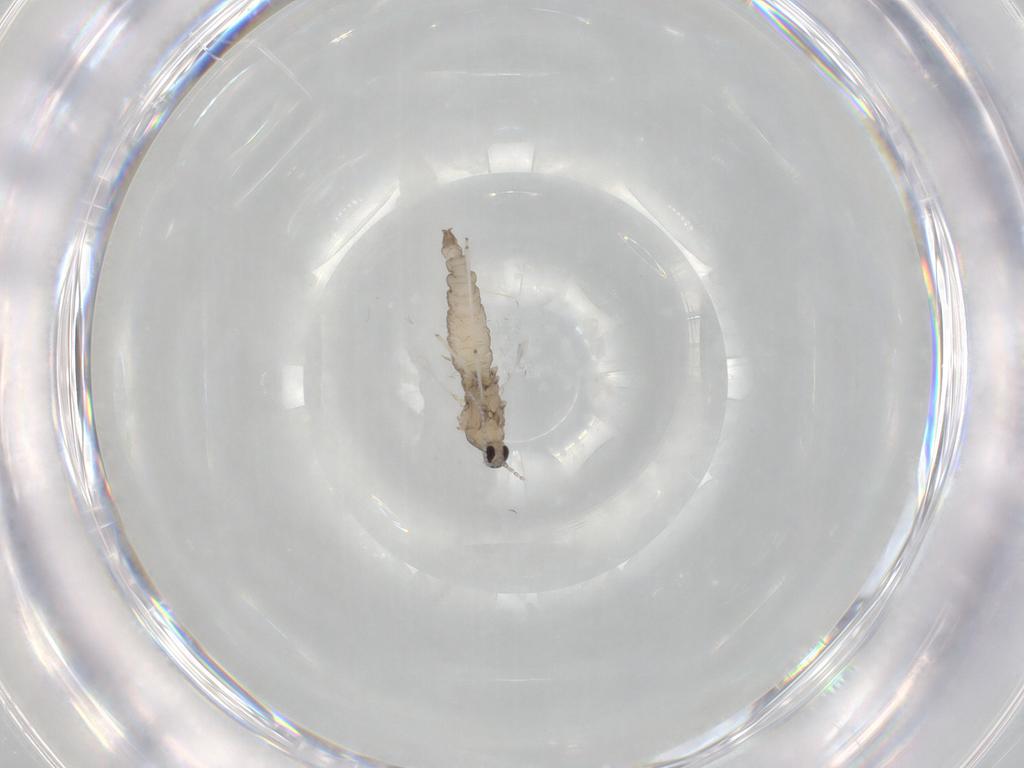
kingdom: Animalia
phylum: Arthropoda
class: Insecta
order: Diptera
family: Cecidomyiidae
